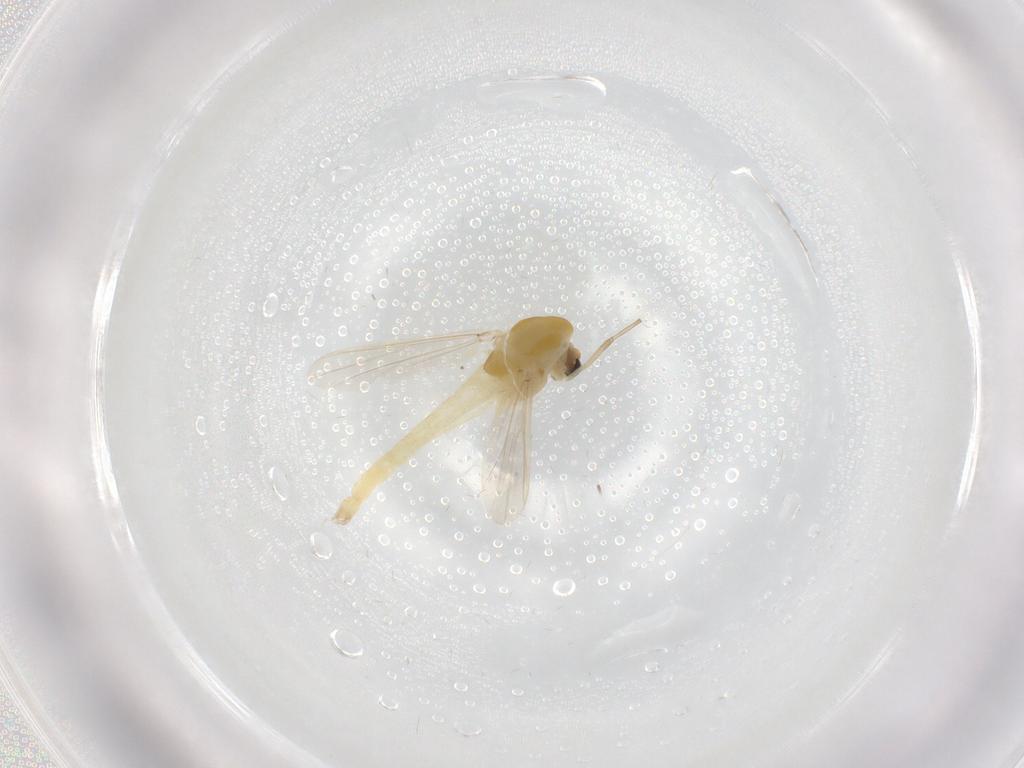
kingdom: Animalia
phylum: Arthropoda
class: Insecta
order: Diptera
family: Chironomidae
